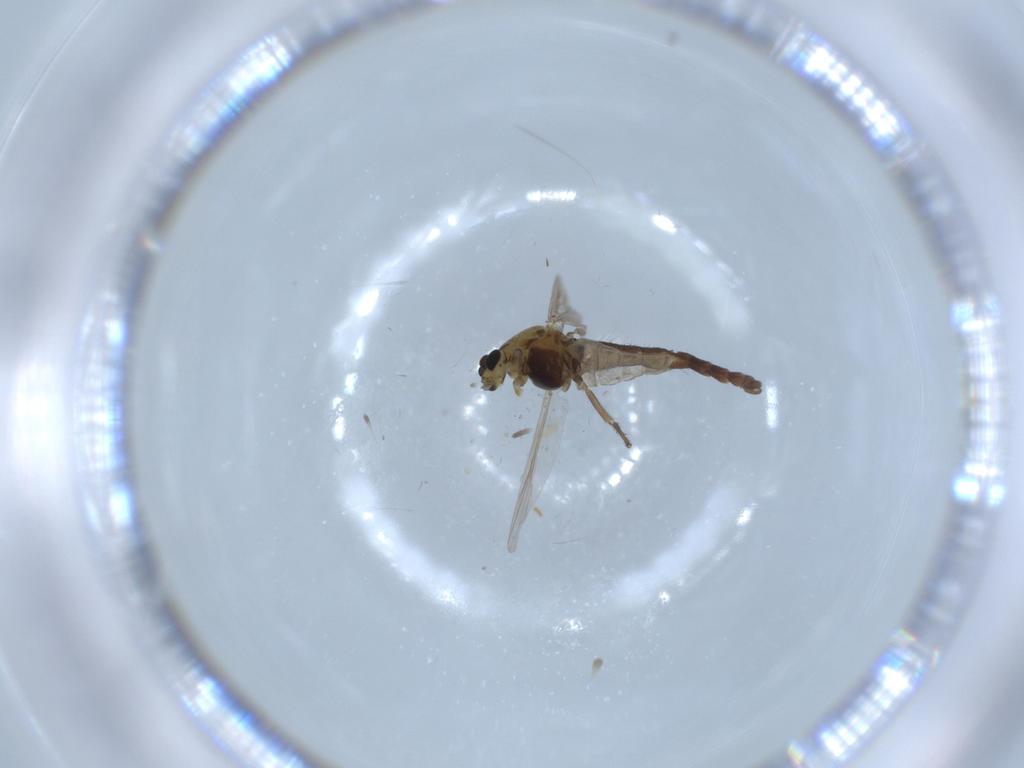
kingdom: Animalia
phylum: Arthropoda
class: Insecta
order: Diptera
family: Chironomidae
